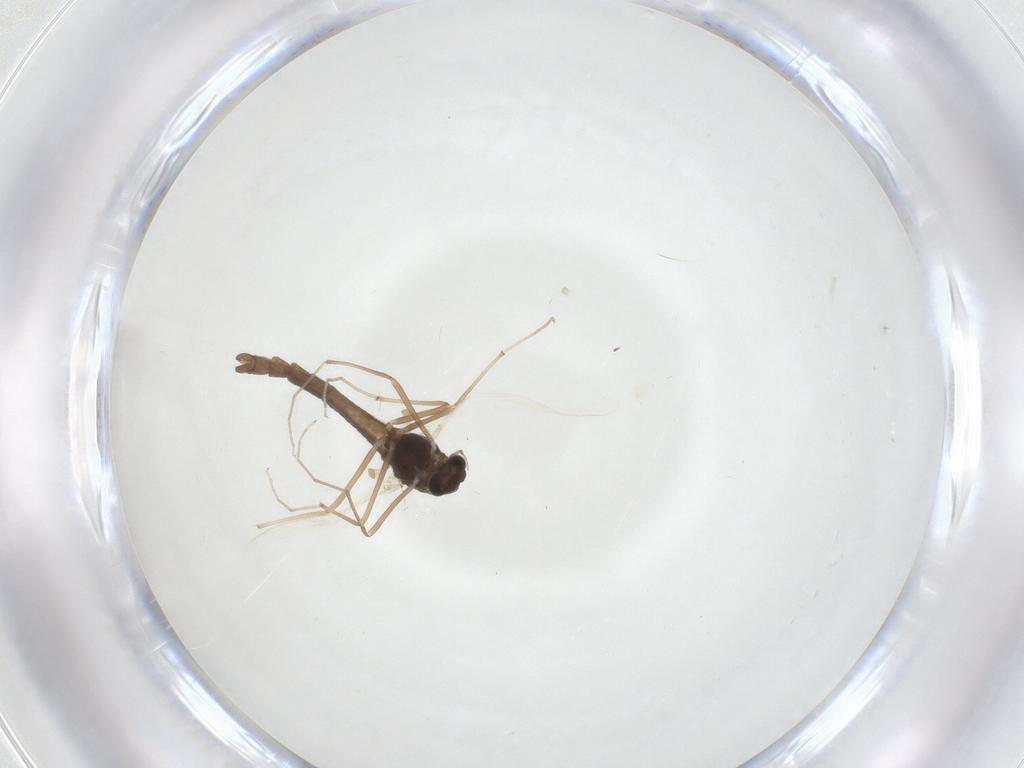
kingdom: Animalia
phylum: Arthropoda
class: Insecta
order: Diptera
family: Chironomidae
